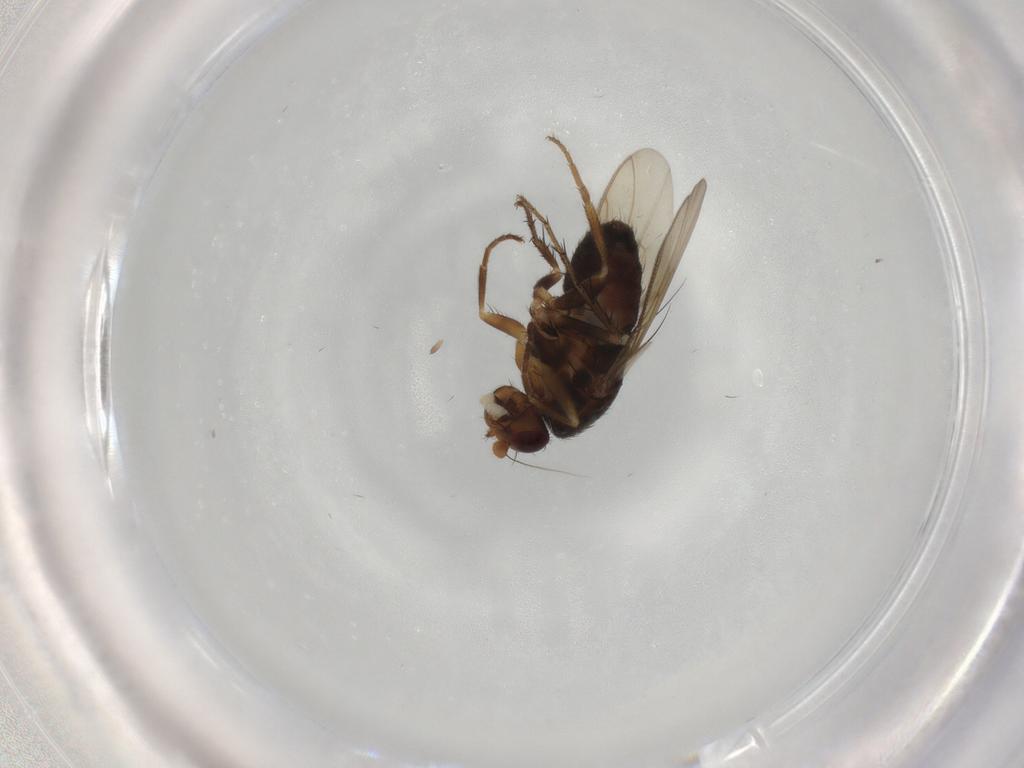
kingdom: Animalia
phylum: Arthropoda
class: Insecta
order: Diptera
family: Sphaeroceridae
